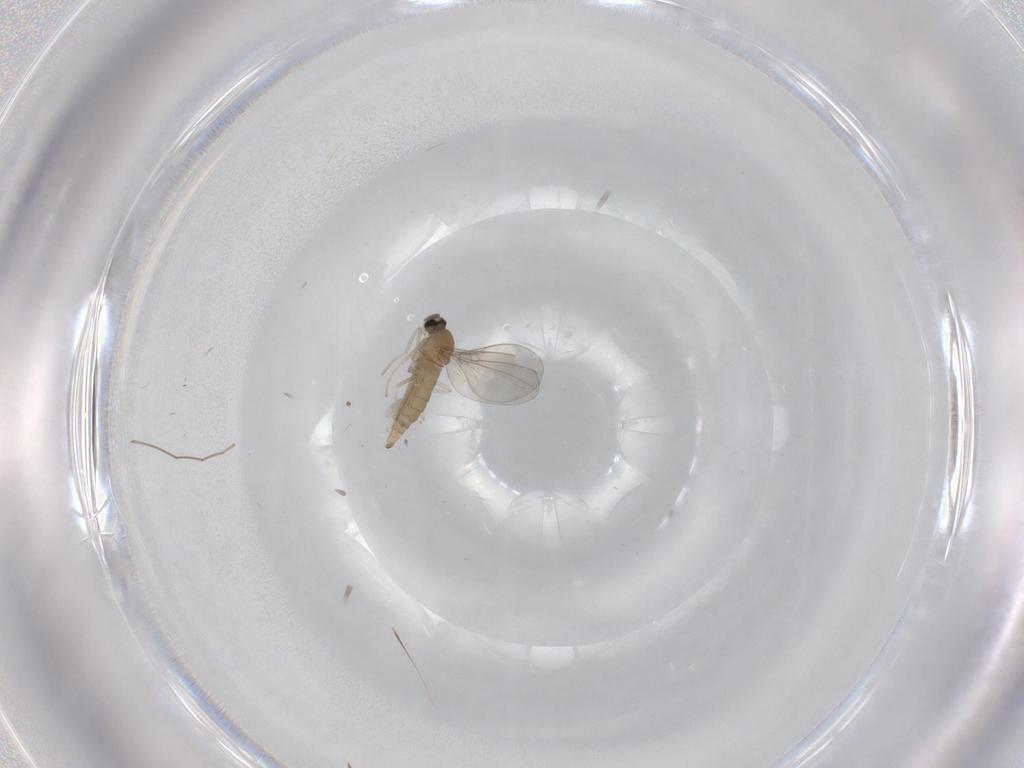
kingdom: Animalia
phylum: Arthropoda
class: Insecta
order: Diptera
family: Cecidomyiidae
